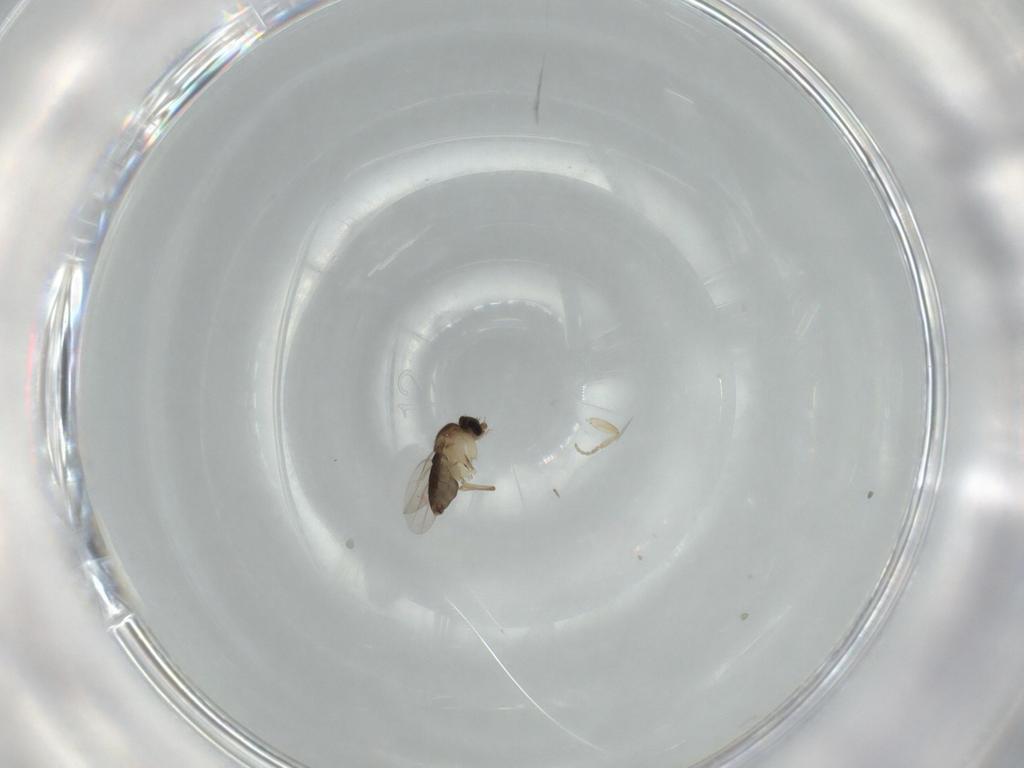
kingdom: Animalia
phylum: Arthropoda
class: Insecta
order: Diptera
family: Phoridae
